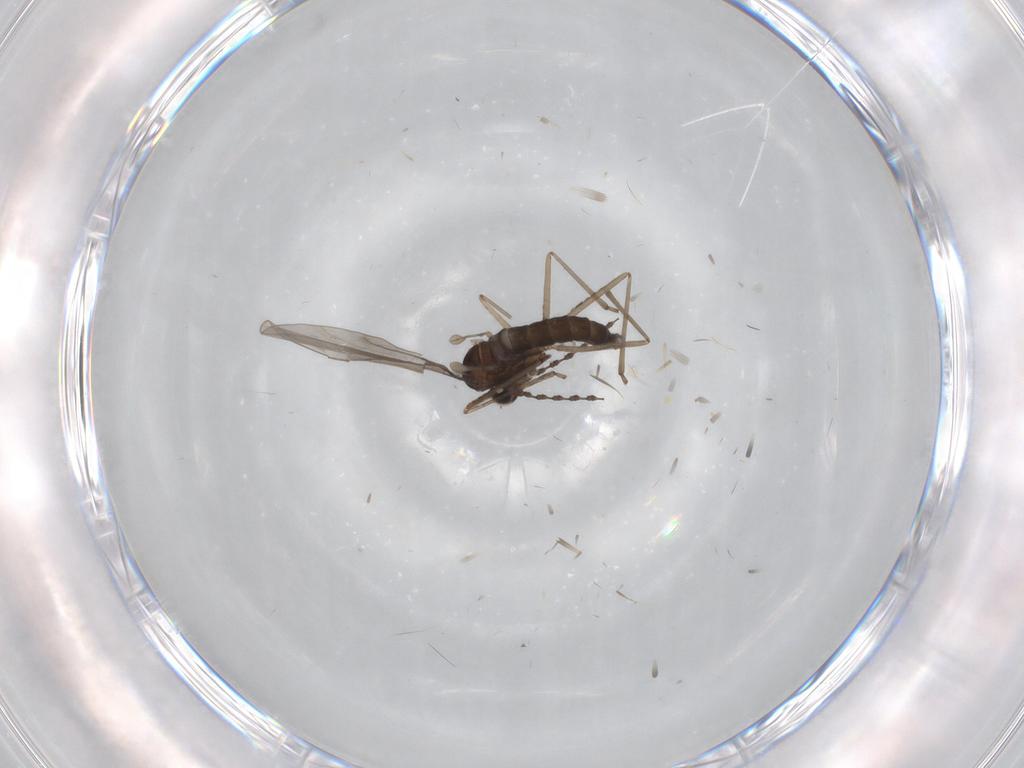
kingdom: Animalia
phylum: Arthropoda
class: Insecta
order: Diptera
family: Cecidomyiidae
